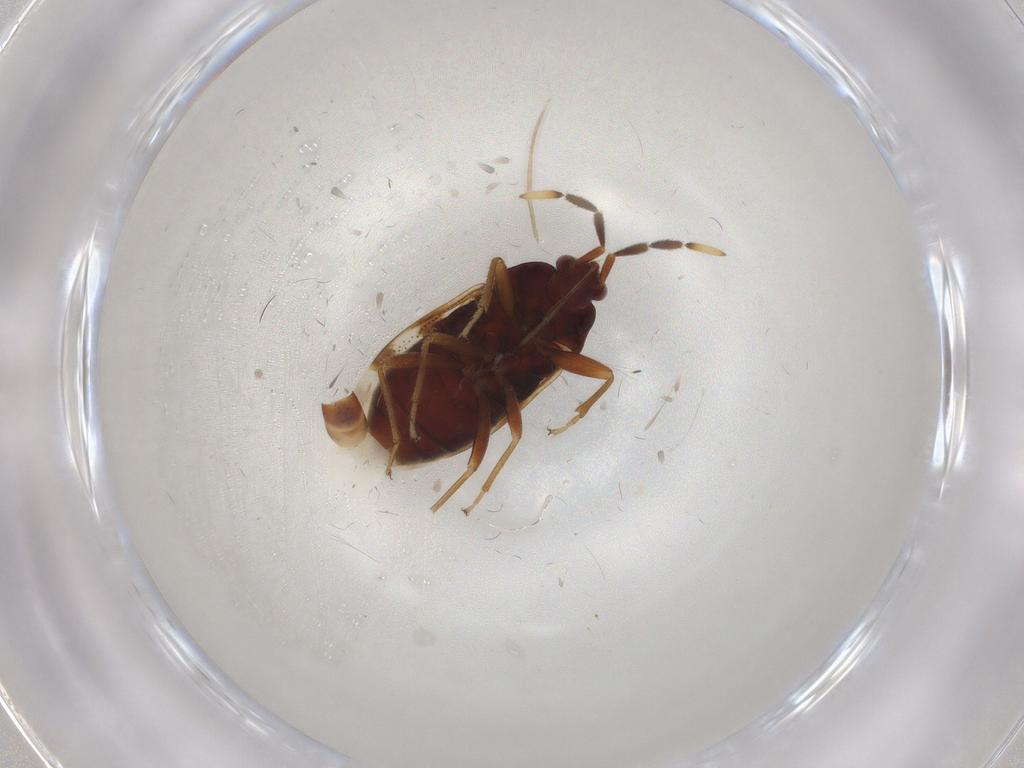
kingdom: Animalia
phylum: Arthropoda
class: Insecta
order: Hemiptera
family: Rhyparochromidae
